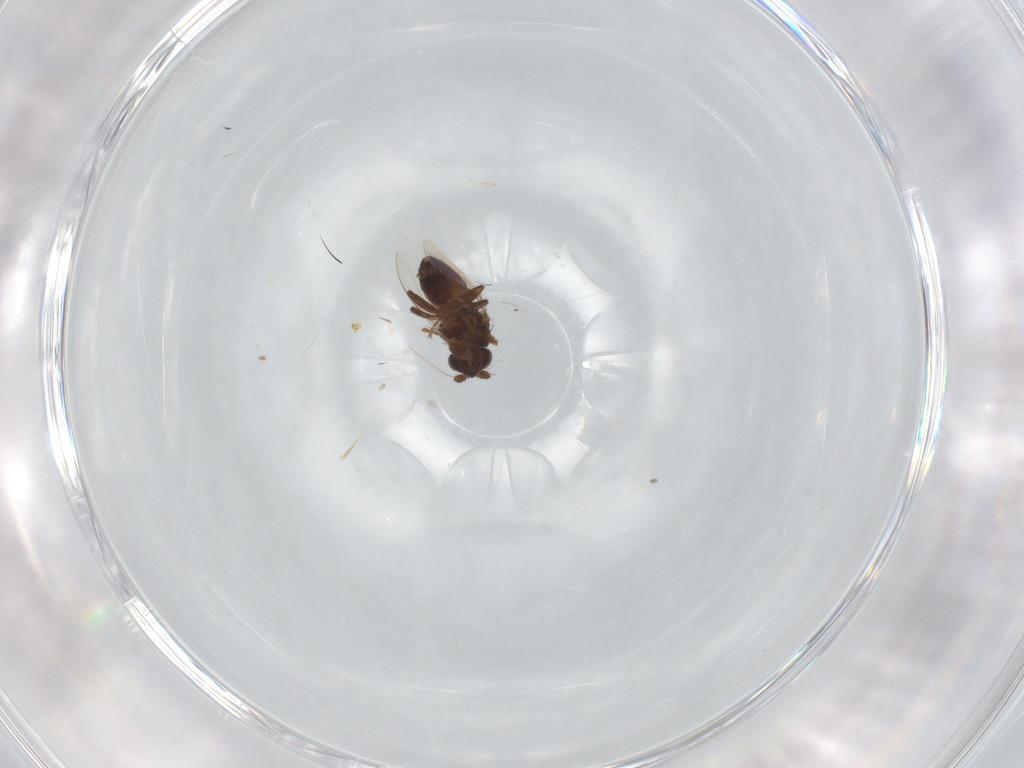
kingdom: Animalia
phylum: Arthropoda
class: Insecta
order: Diptera
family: Sphaeroceridae
